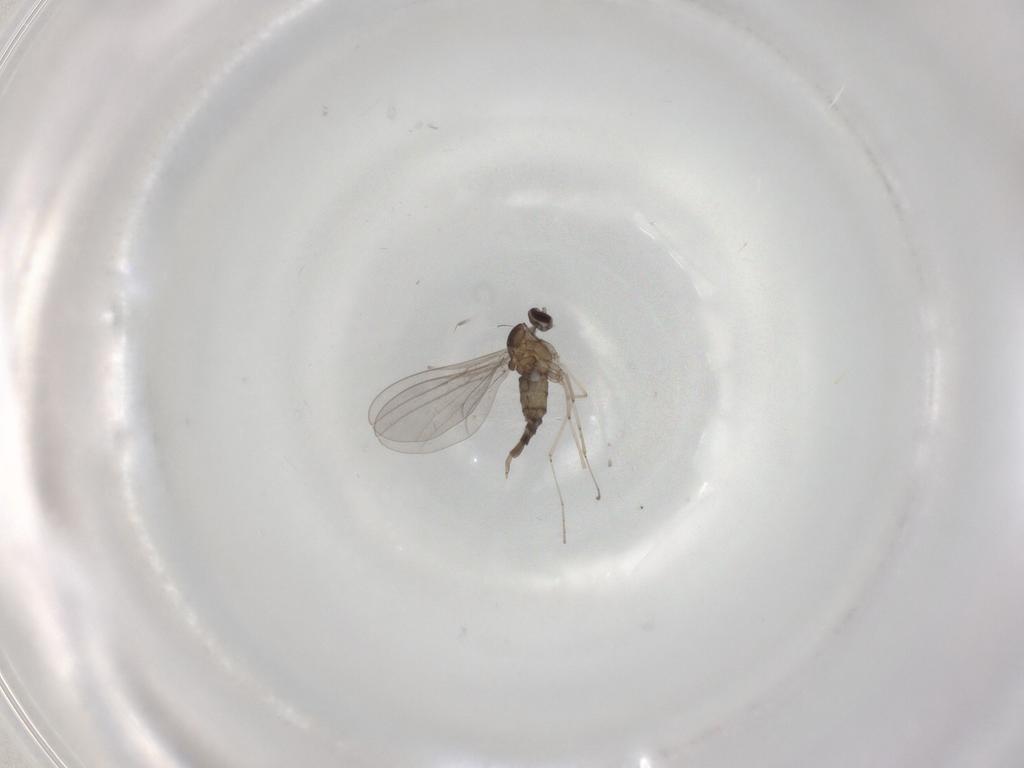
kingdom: Animalia
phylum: Arthropoda
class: Insecta
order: Diptera
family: Cecidomyiidae
